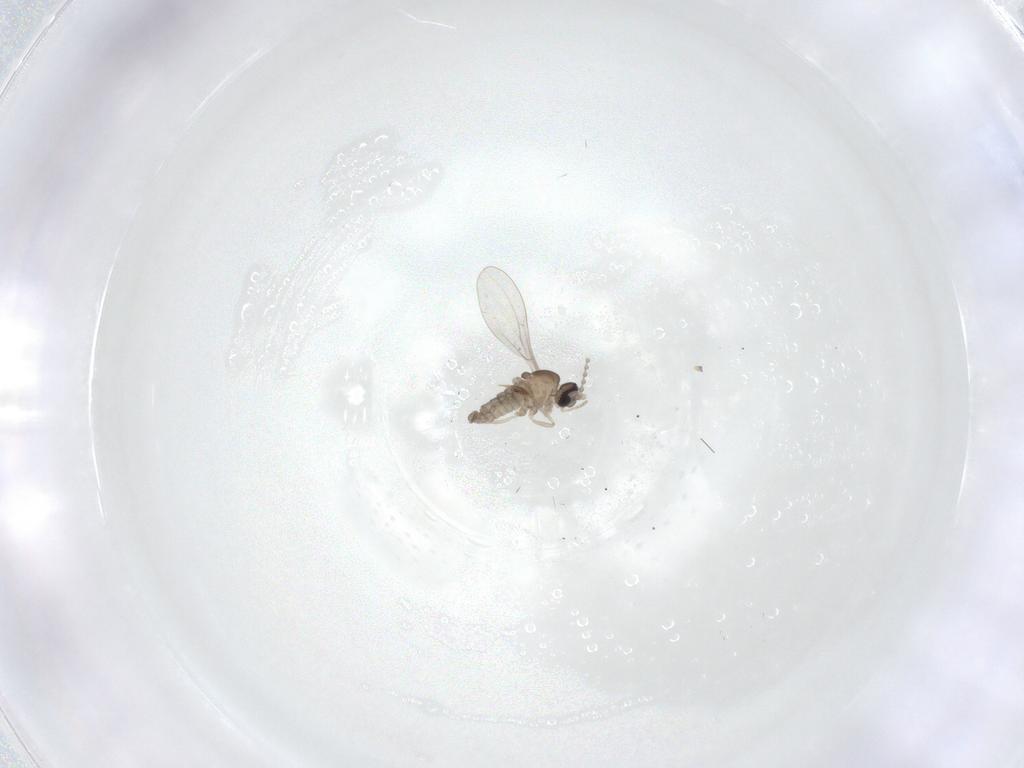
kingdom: Animalia
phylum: Arthropoda
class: Insecta
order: Diptera
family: Cecidomyiidae
